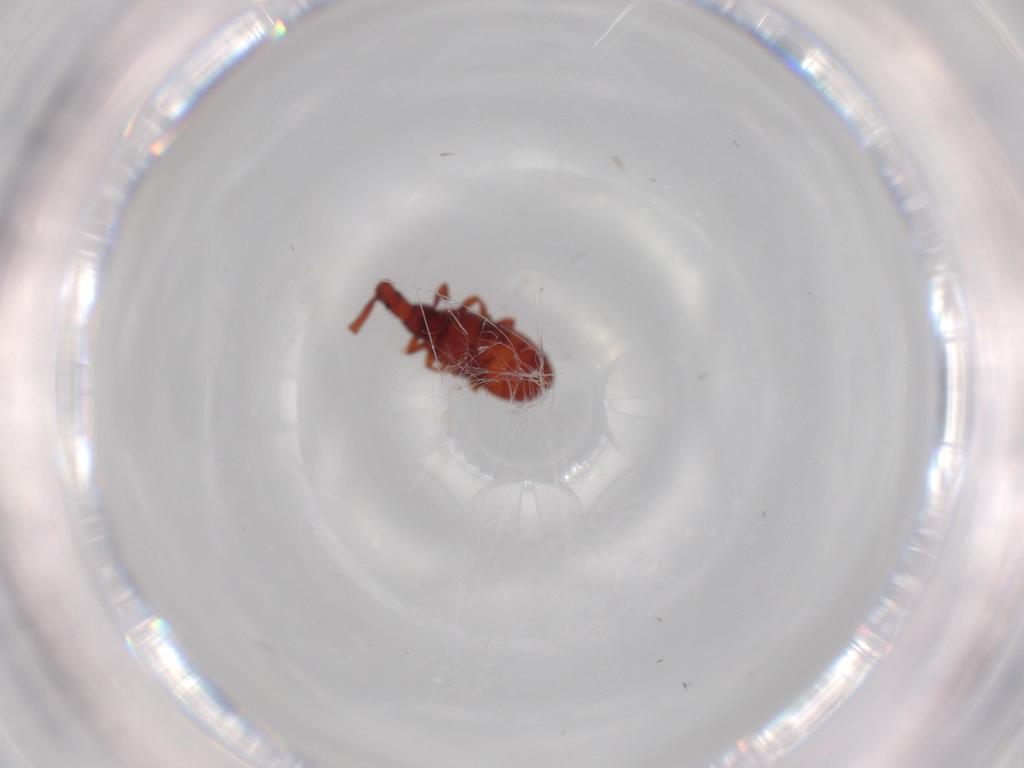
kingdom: Animalia
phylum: Arthropoda
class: Insecta
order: Coleoptera
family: Staphylinidae
